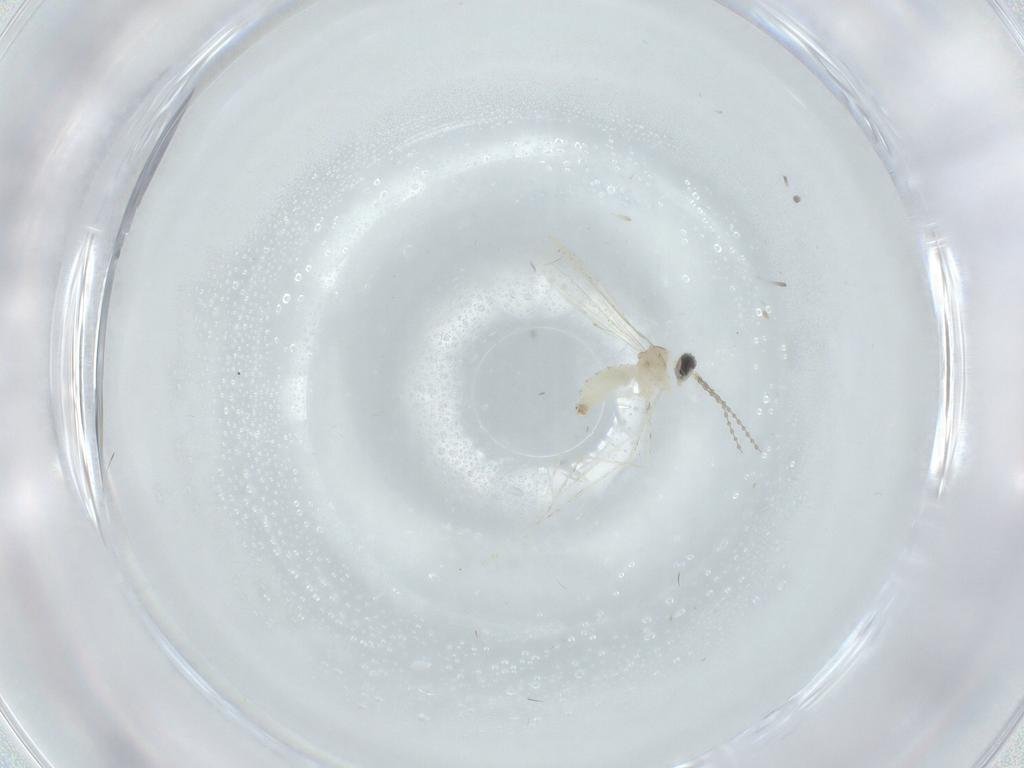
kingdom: Animalia
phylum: Arthropoda
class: Insecta
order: Diptera
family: Cecidomyiidae
